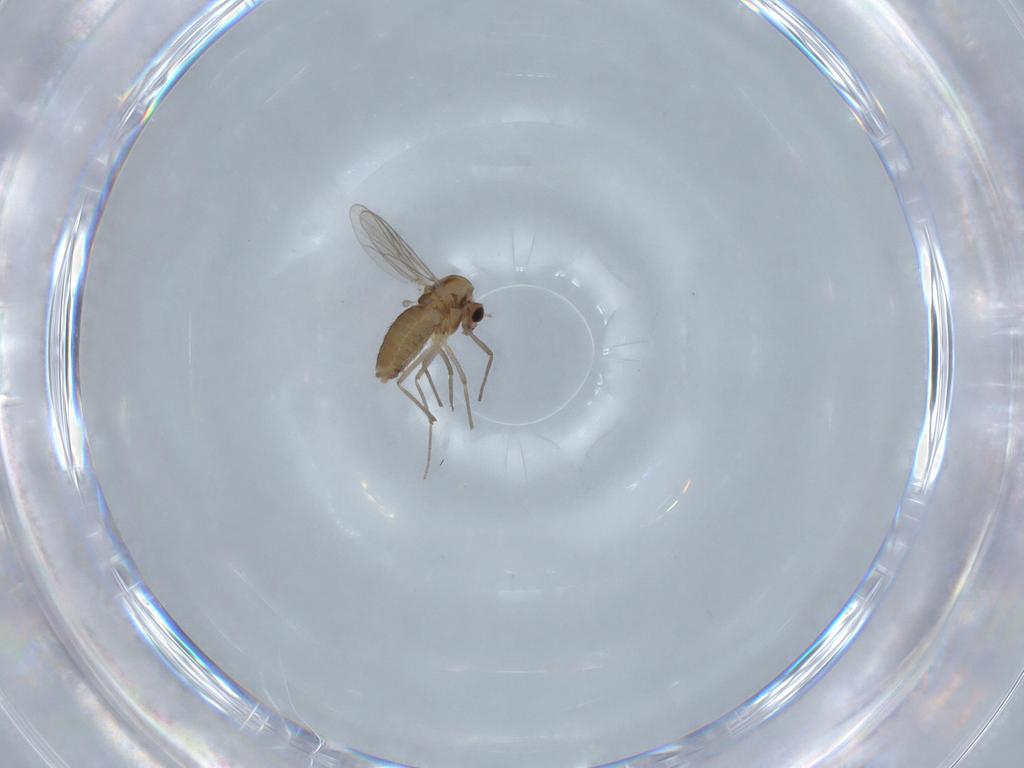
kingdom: Animalia
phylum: Arthropoda
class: Insecta
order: Diptera
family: Chironomidae
